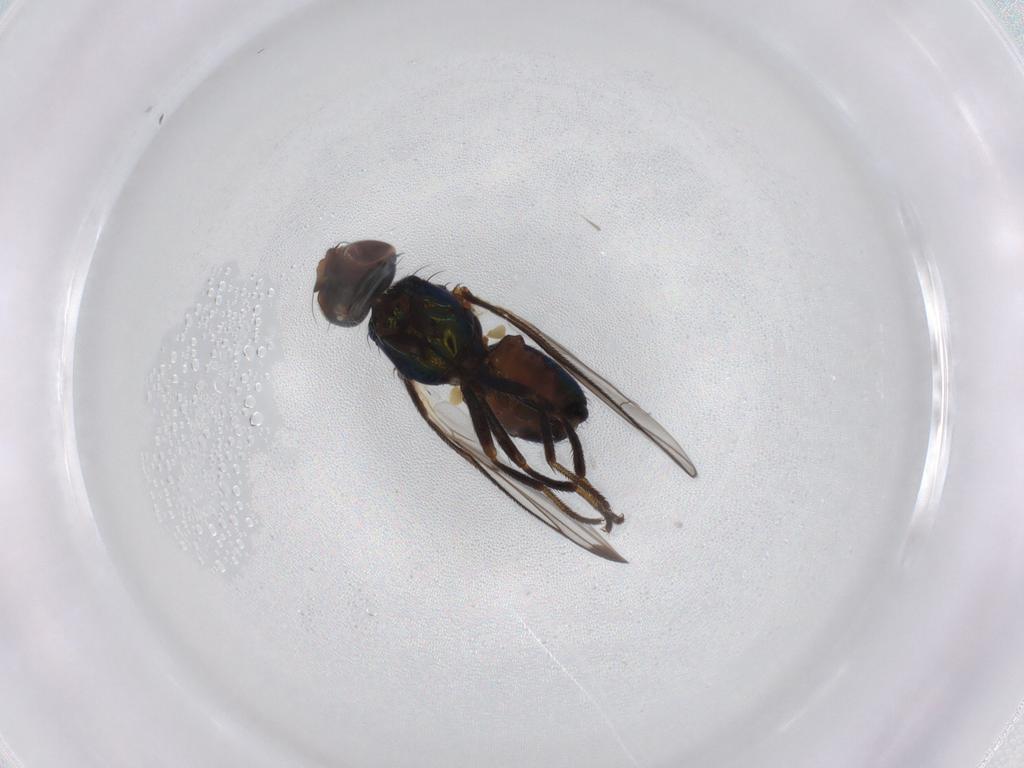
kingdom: Animalia
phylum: Arthropoda
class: Insecta
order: Diptera
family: Platystomatidae
